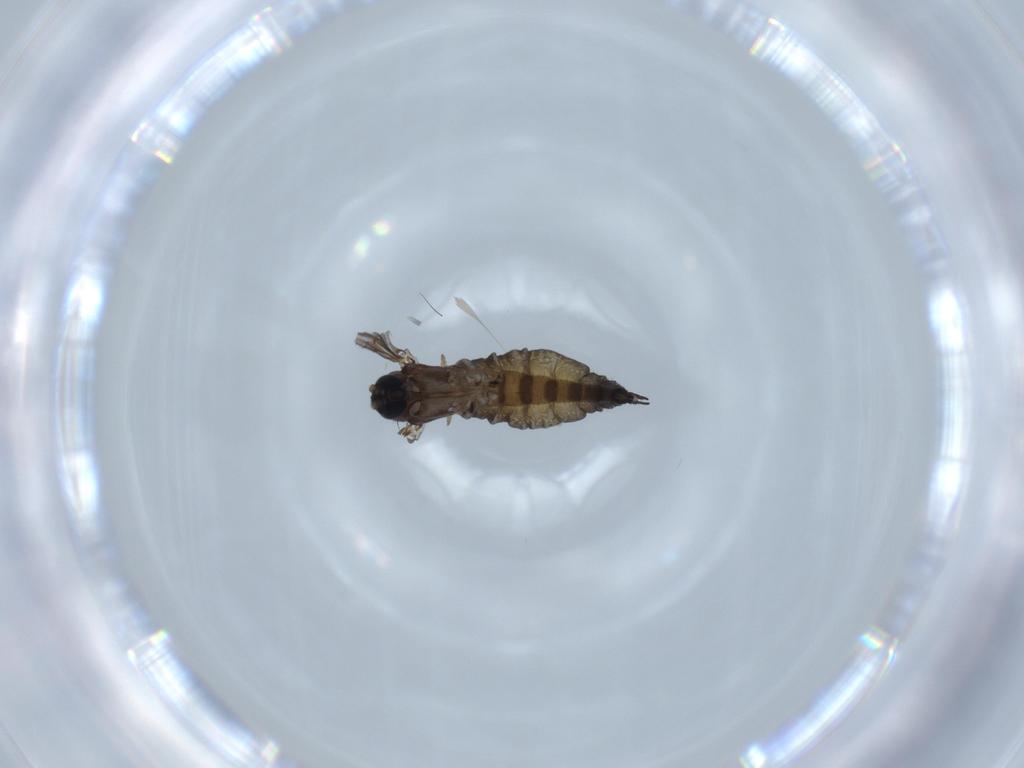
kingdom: Animalia
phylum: Arthropoda
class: Insecta
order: Diptera
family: Sciaridae
